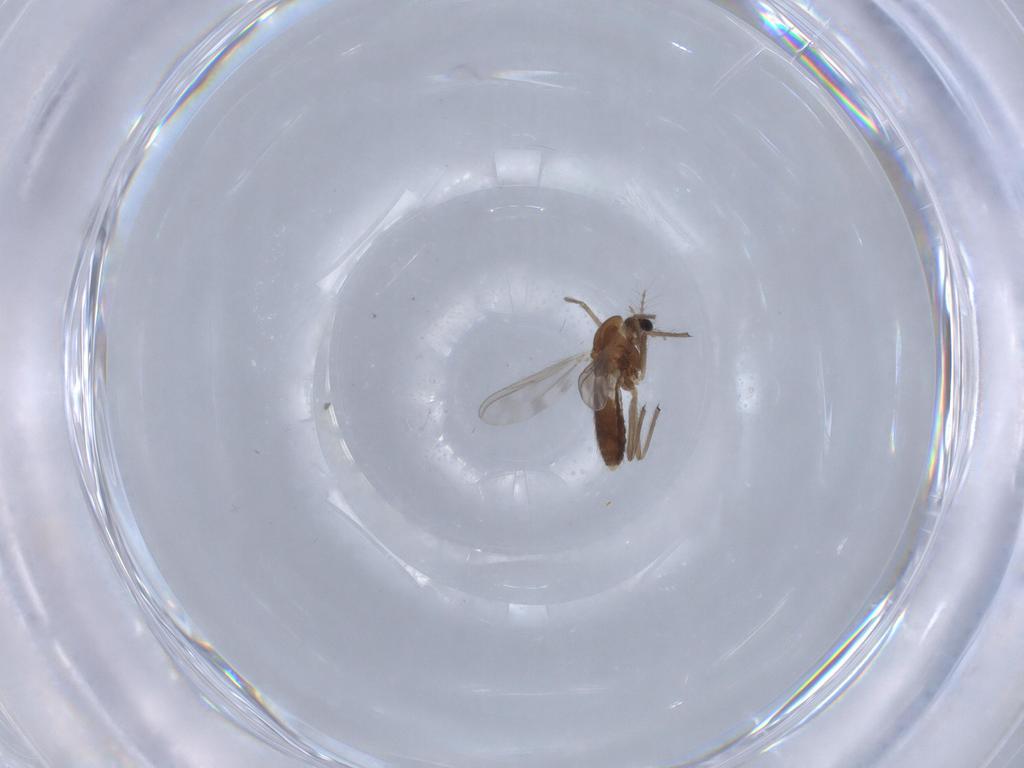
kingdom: Animalia
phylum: Arthropoda
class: Insecta
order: Diptera
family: Chironomidae
